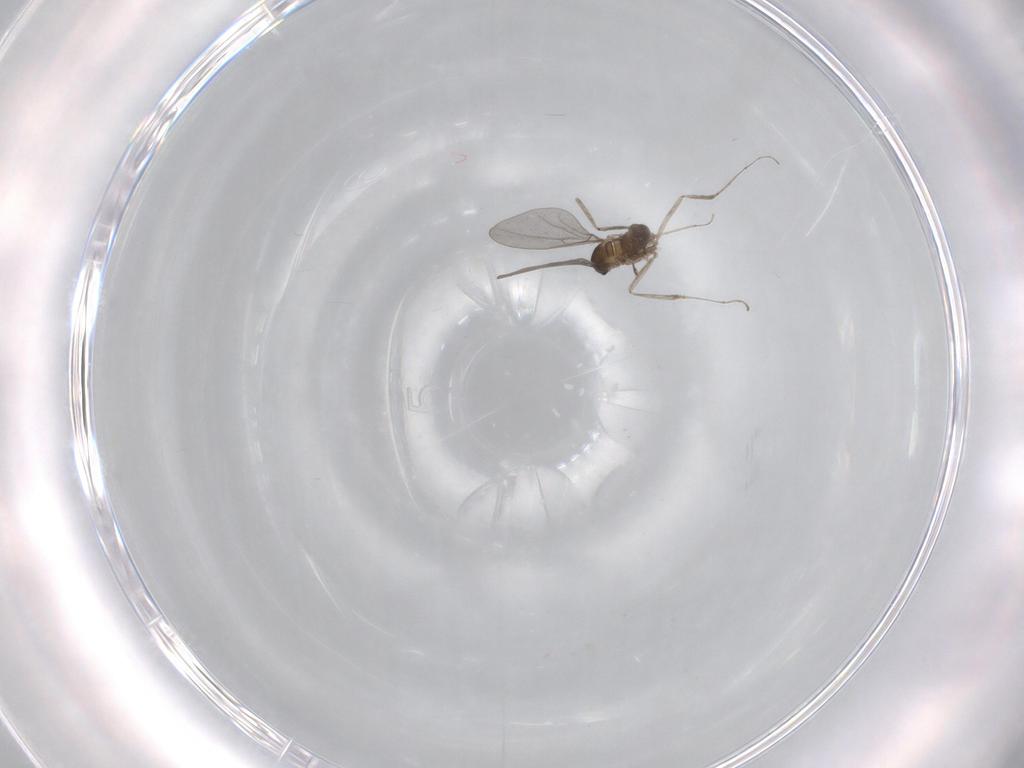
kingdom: Animalia
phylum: Arthropoda
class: Insecta
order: Diptera
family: Cecidomyiidae
